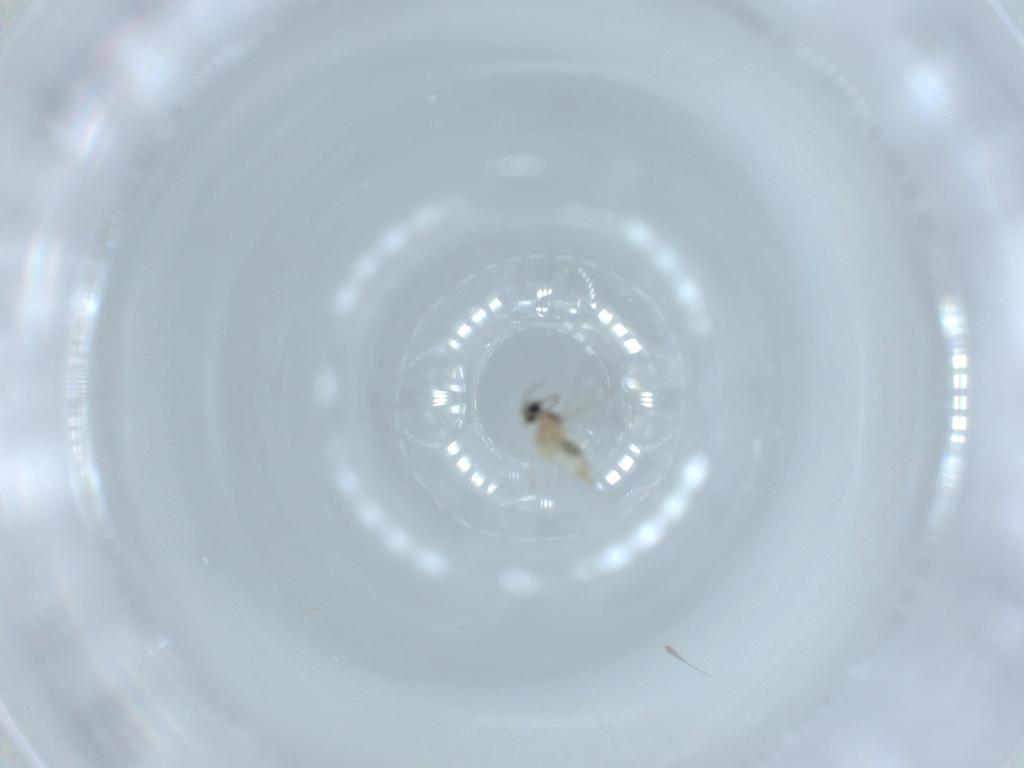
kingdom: Animalia
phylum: Arthropoda
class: Insecta
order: Diptera
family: Cecidomyiidae
